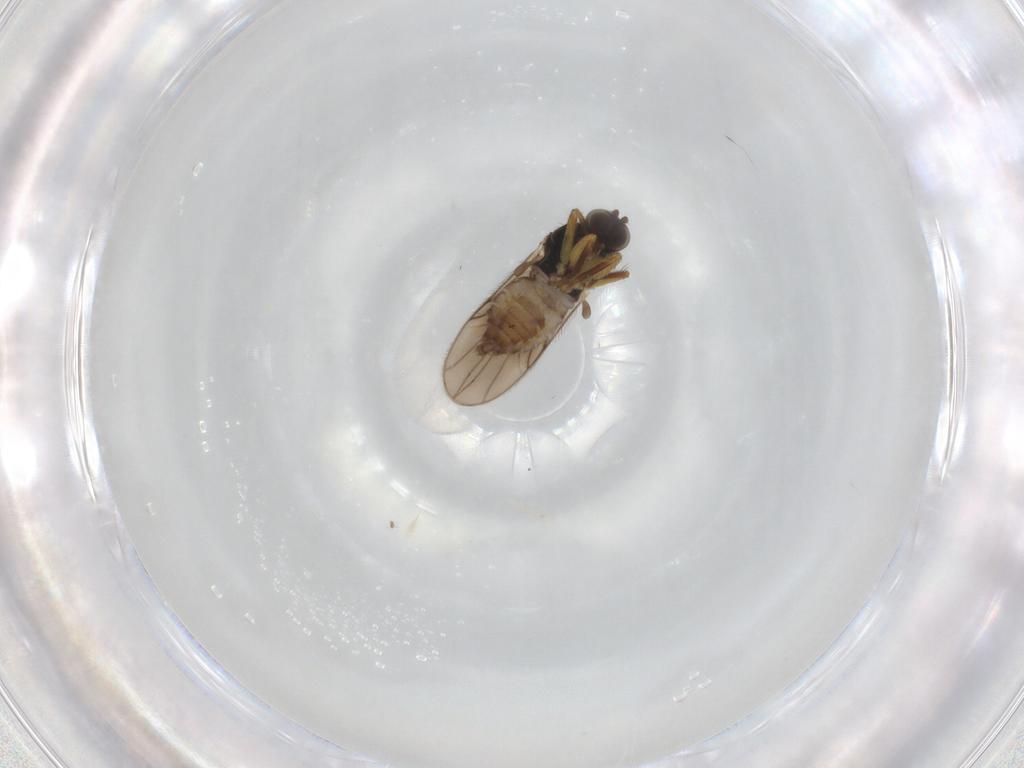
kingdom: Animalia
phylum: Arthropoda
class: Insecta
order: Diptera
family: Hybotidae
